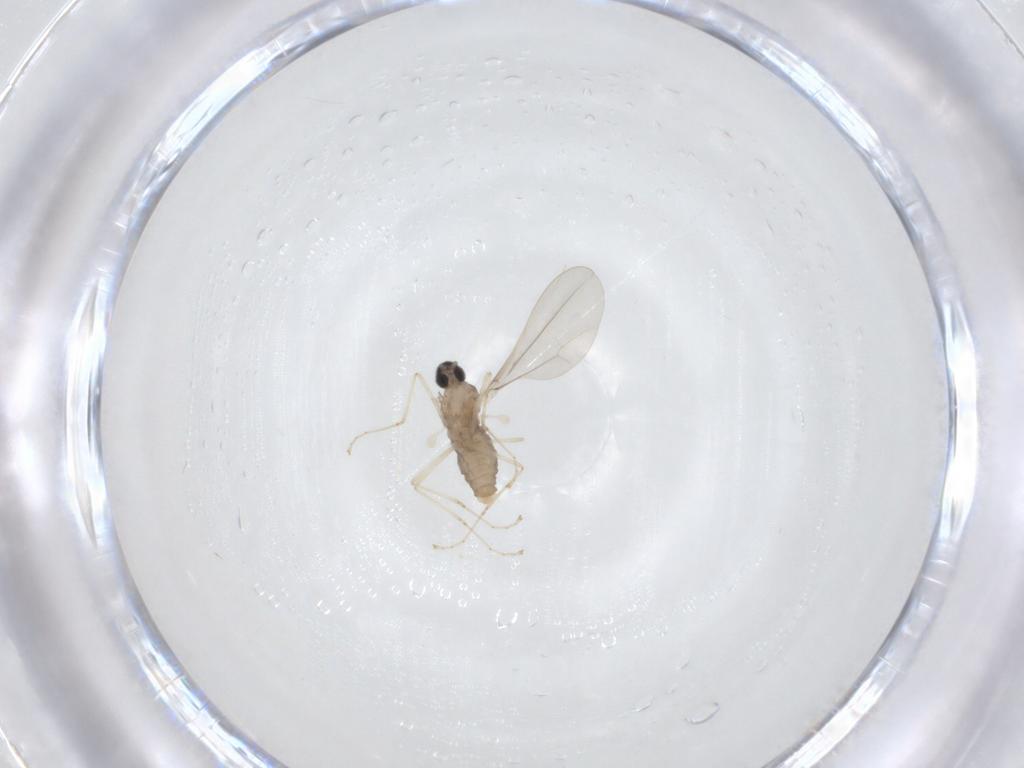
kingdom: Animalia
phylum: Arthropoda
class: Insecta
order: Diptera
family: Cecidomyiidae
